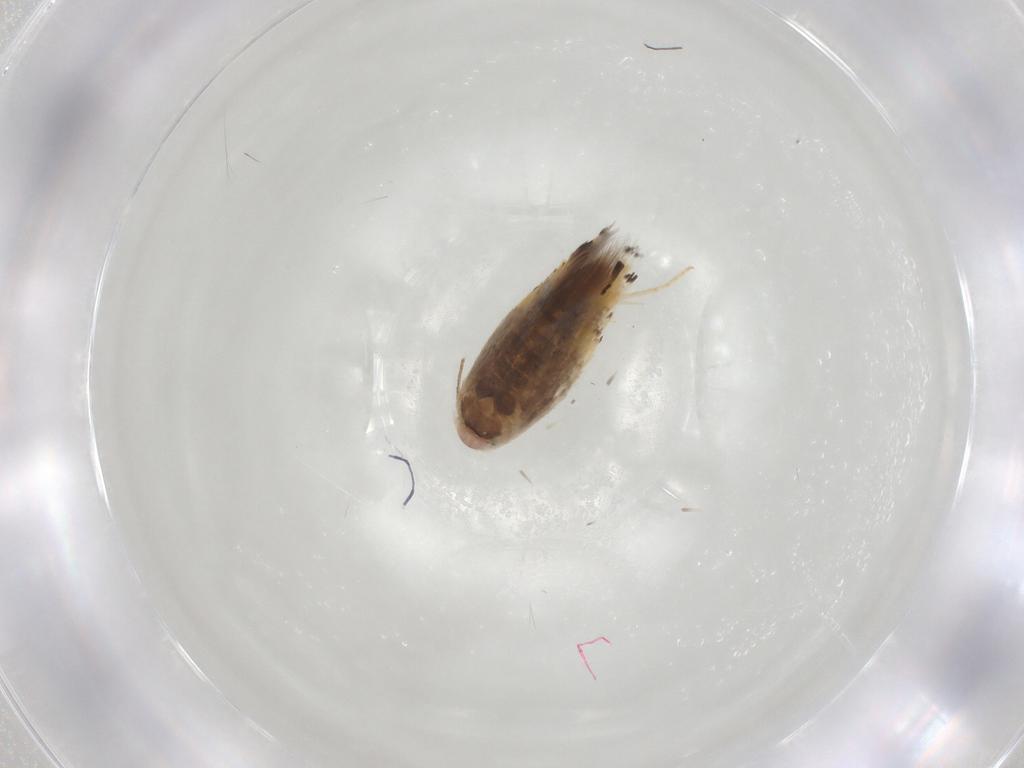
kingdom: Animalia
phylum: Arthropoda
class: Insecta
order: Lepidoptera
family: Lyonetiidae
